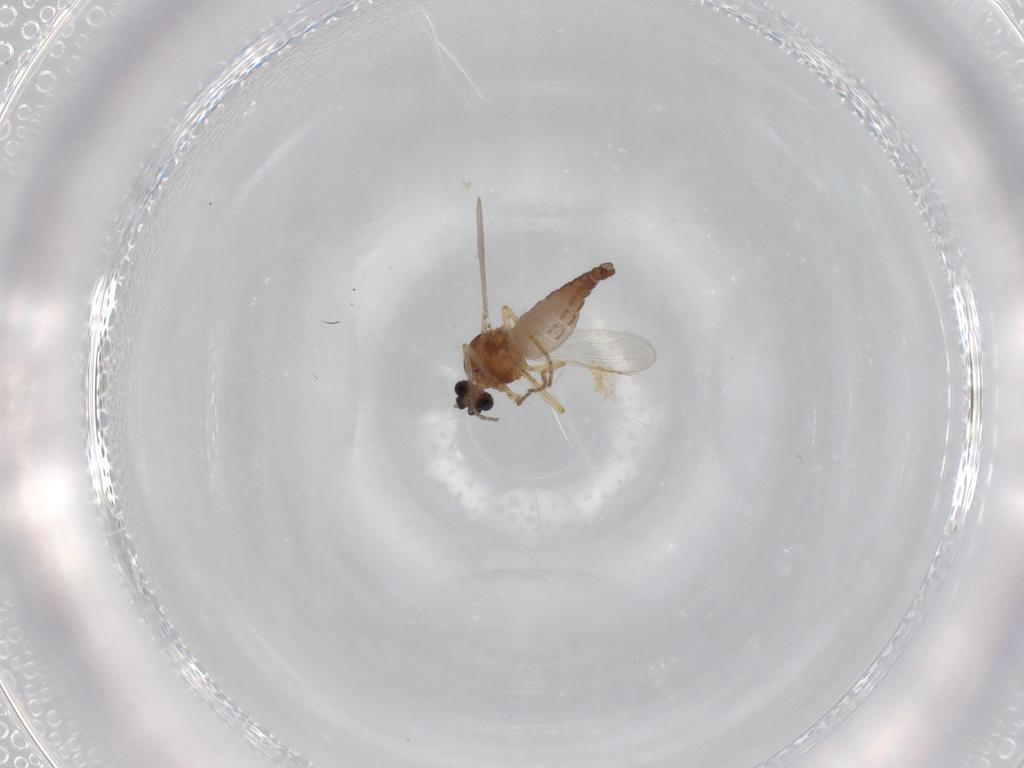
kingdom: Animalia
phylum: Arthropoda
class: Insecta
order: Diptera
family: Ceratopogonidae
